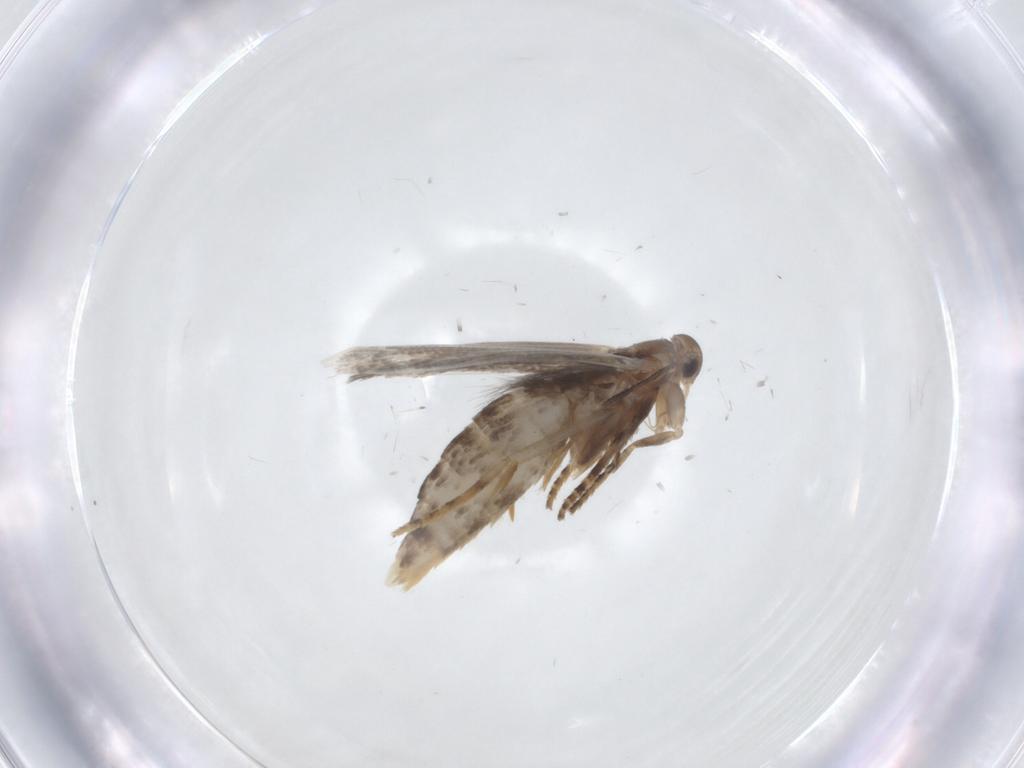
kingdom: Animalia
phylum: Arthropoda
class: Insecta
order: Lepidoptera
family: Elachistidae
